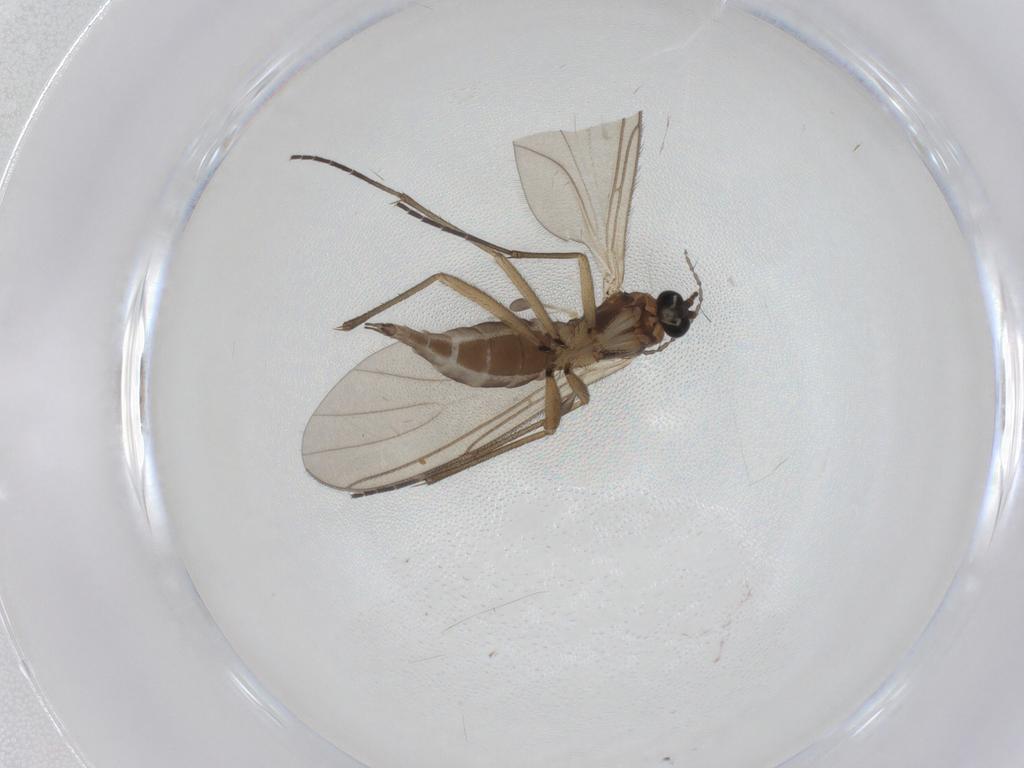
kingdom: Animalia
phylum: Arthropoda
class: Insecta
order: Diptera
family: Sciaridae
